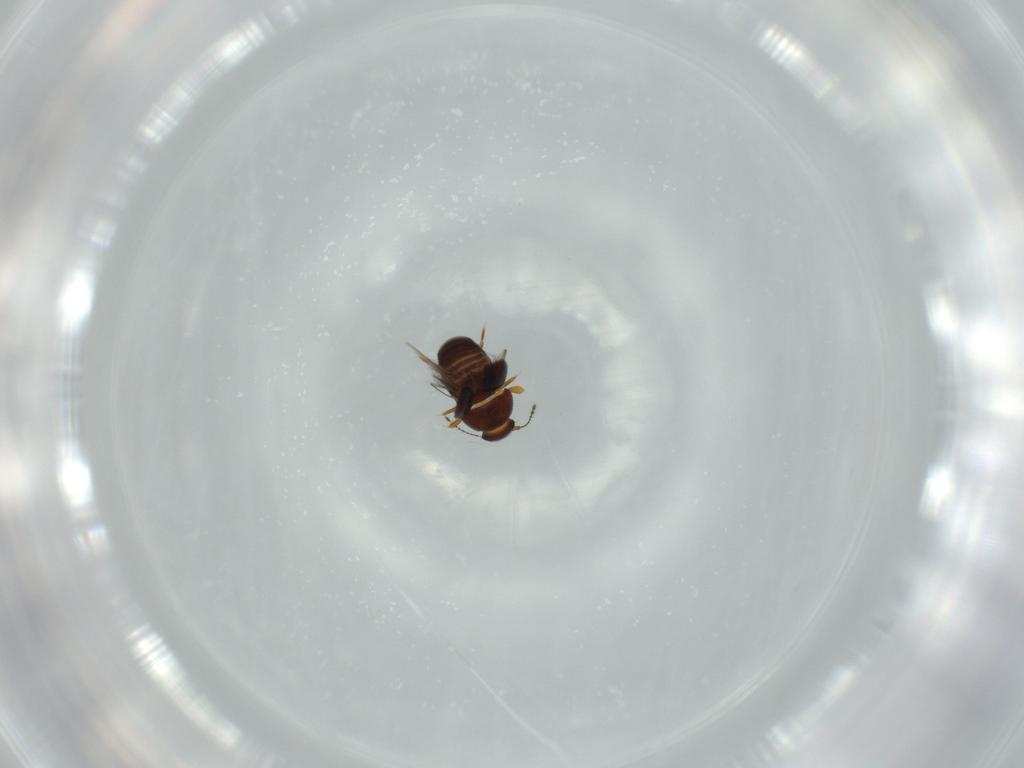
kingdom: Animalia
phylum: Arthropoda
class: Insecta
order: Coleoptera
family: Ptiliidae
